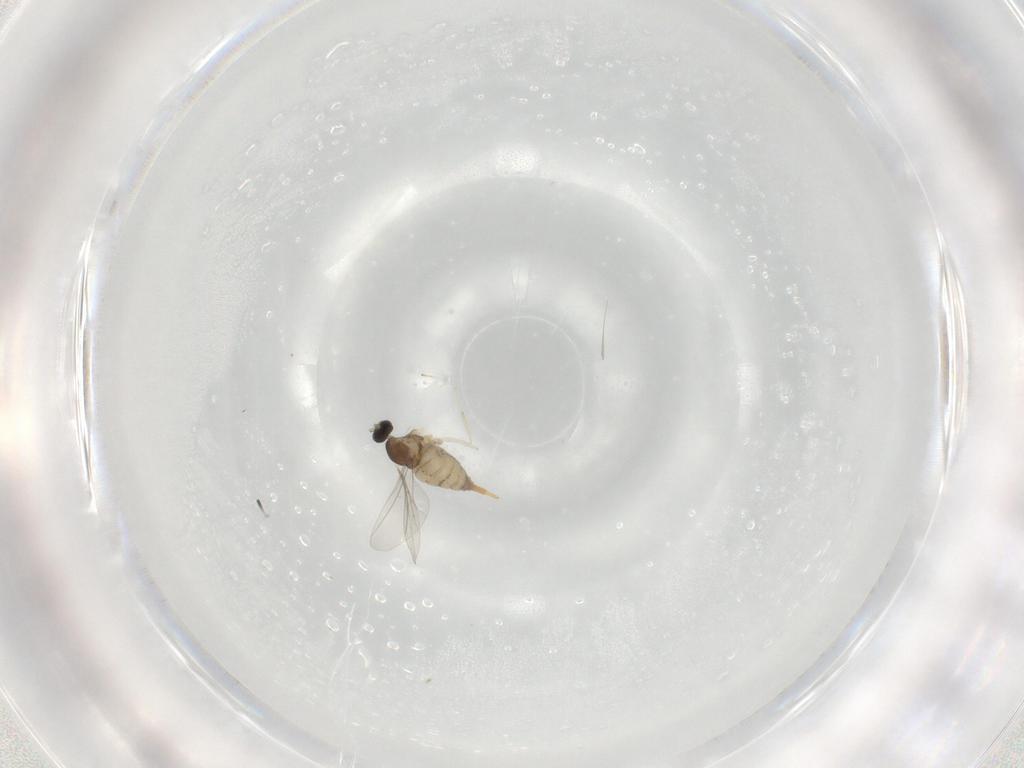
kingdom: Animalia
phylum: Arthropoda
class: Insecta
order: Diptera
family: Cecidomyiidae
